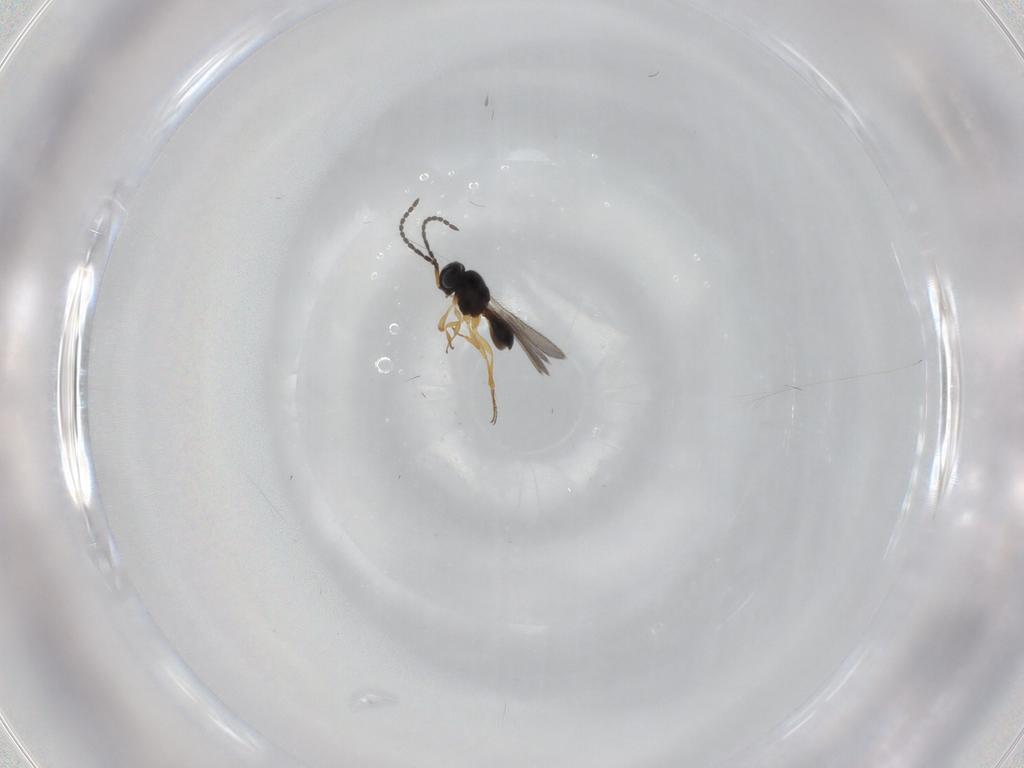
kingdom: Animalia
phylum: Arthropoda
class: Insecta
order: Hymenoptera
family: Scelionidae
